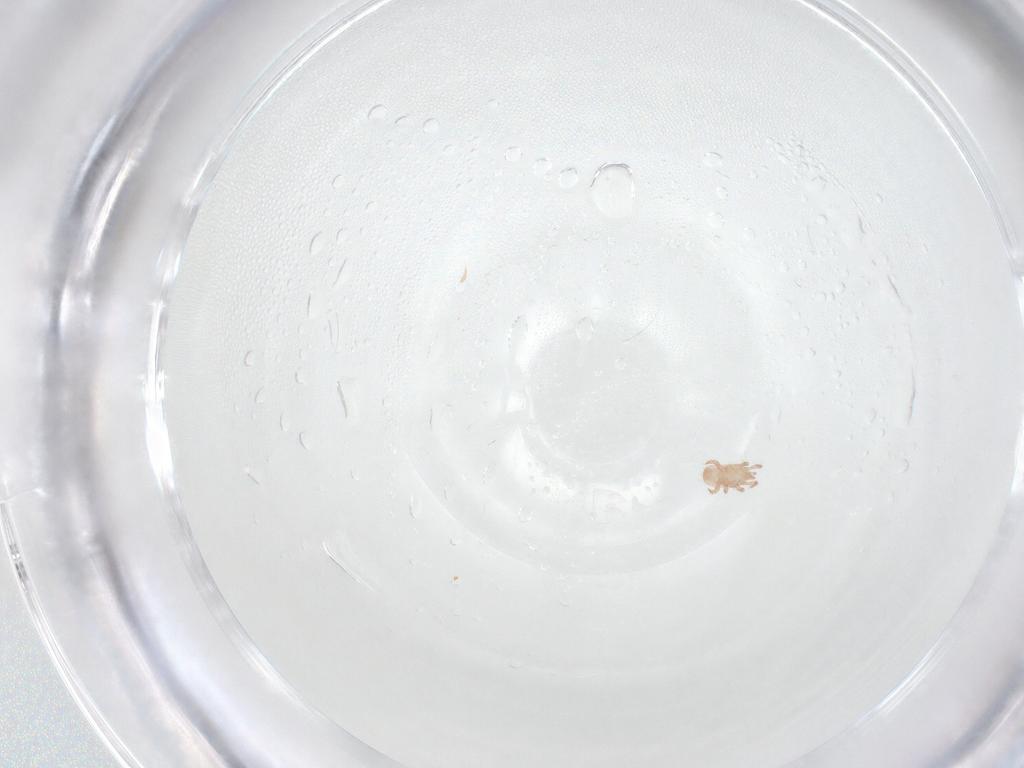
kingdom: Animalia
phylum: Arthropoda
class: Arachnida
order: Mesostigmata
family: Digamasellidae
